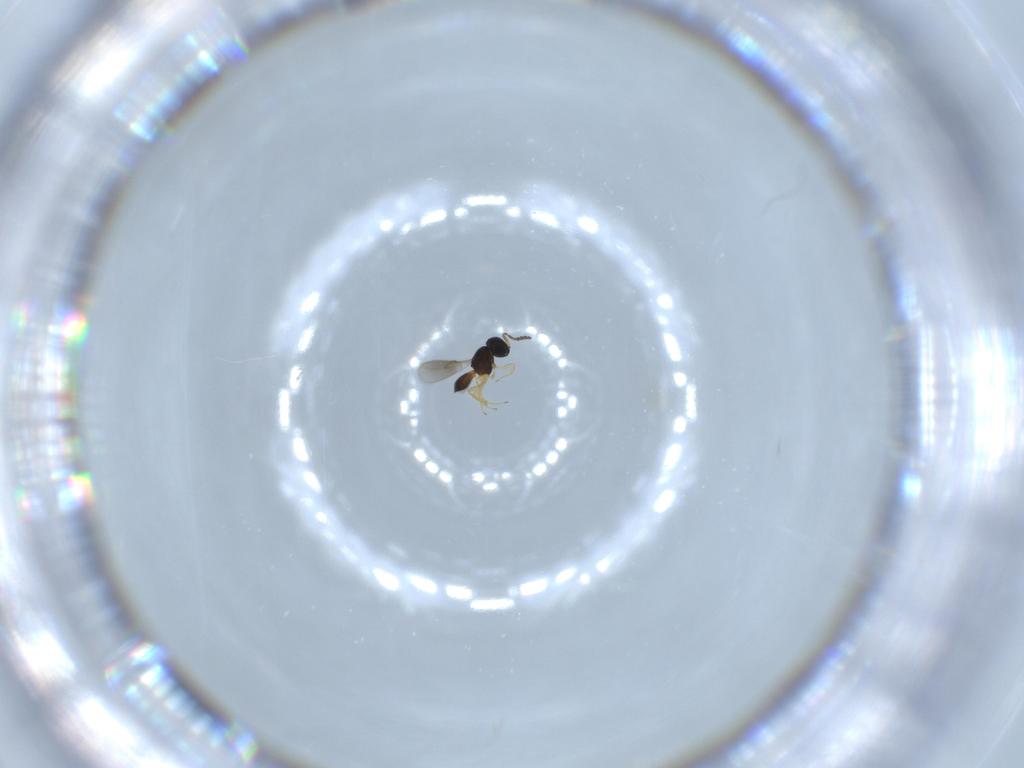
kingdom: Animalia
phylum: Arthropoda
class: Insecta
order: Hymenoptera
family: Scelionidae
